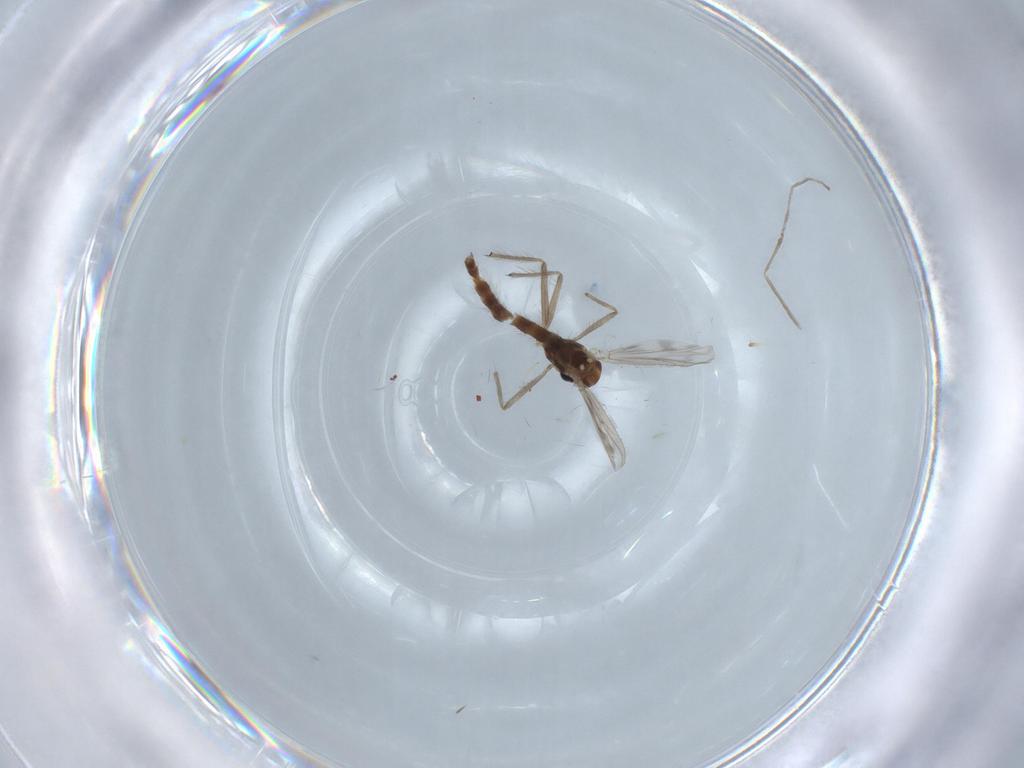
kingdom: Animalia
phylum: Arthropoda
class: Insecta
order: Diptera
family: Chironomidae
